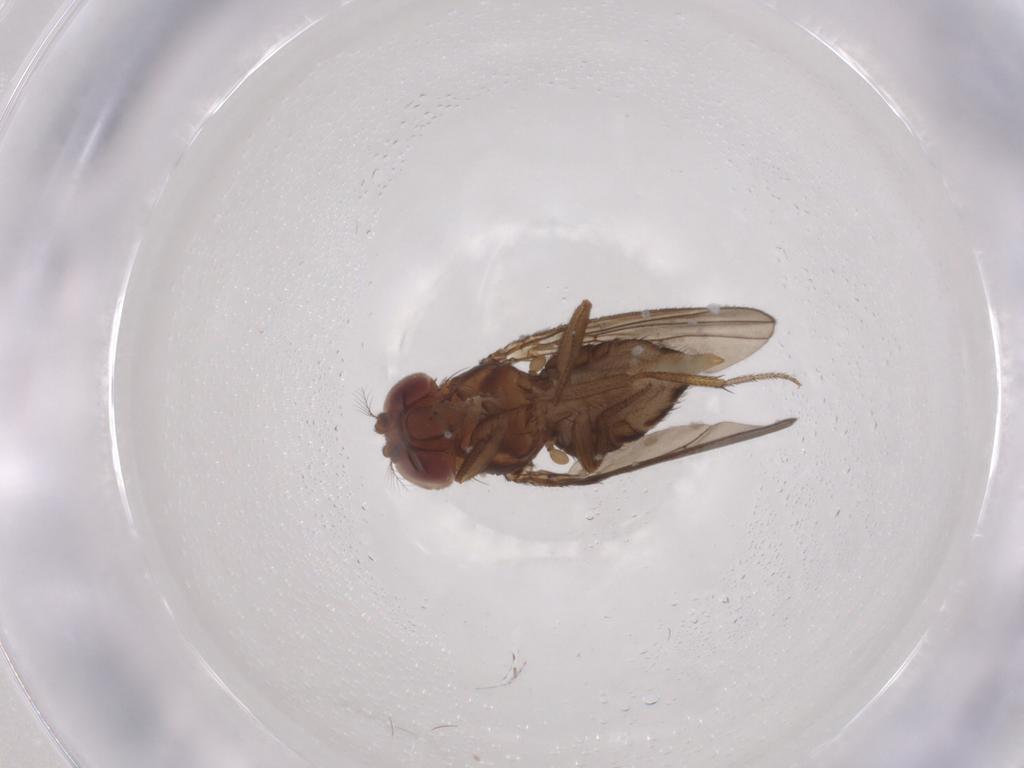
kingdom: Animalia
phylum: Arthropoda
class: Insecta
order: Diptera
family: Drosophilidae
